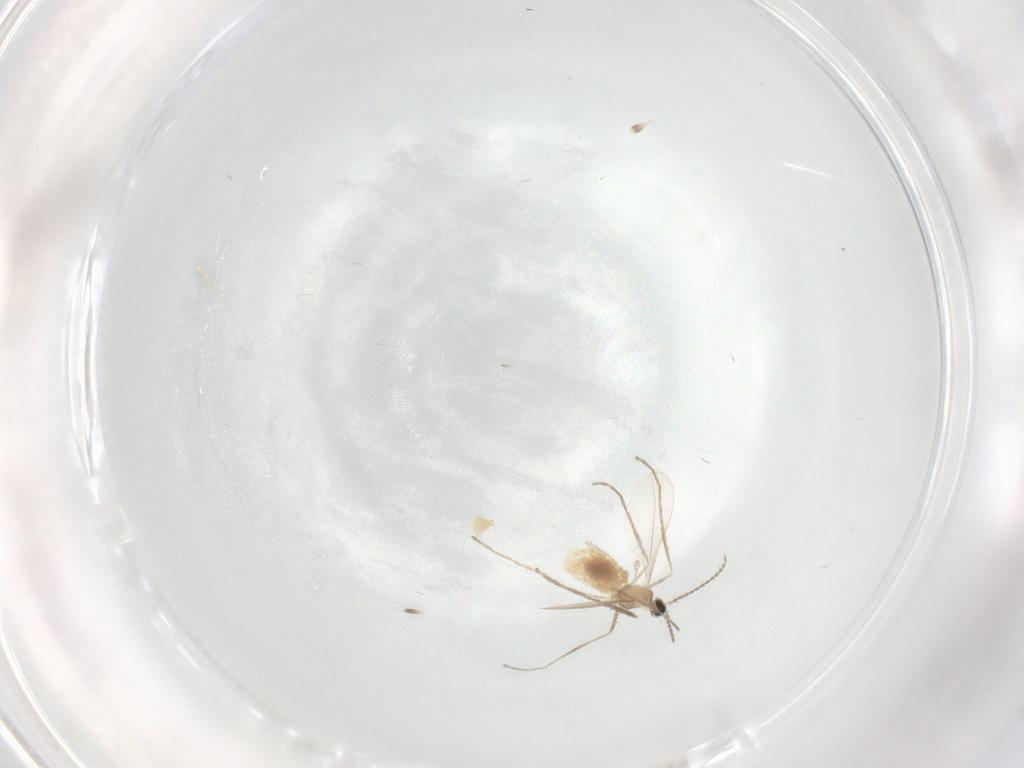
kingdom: Animalia
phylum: Arthropoda
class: Insecta
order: Diptera
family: Cecidomyiidae
